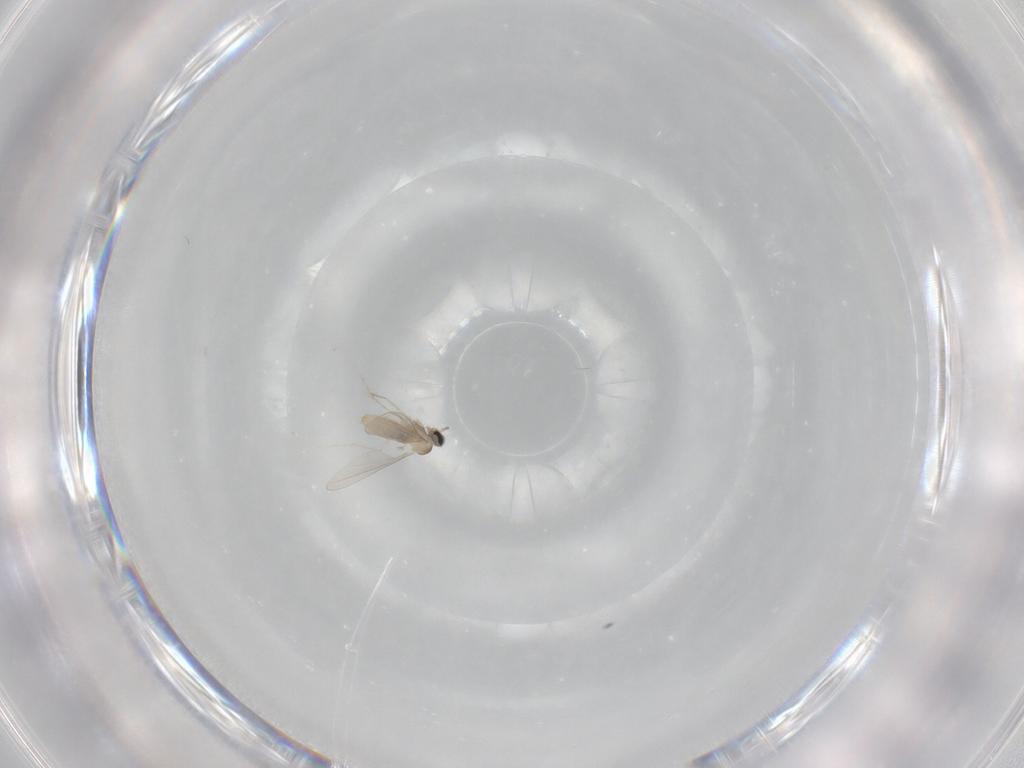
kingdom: Animalia
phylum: Arthropoda
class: Insecta
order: Diptera
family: Cecidomyiidae
